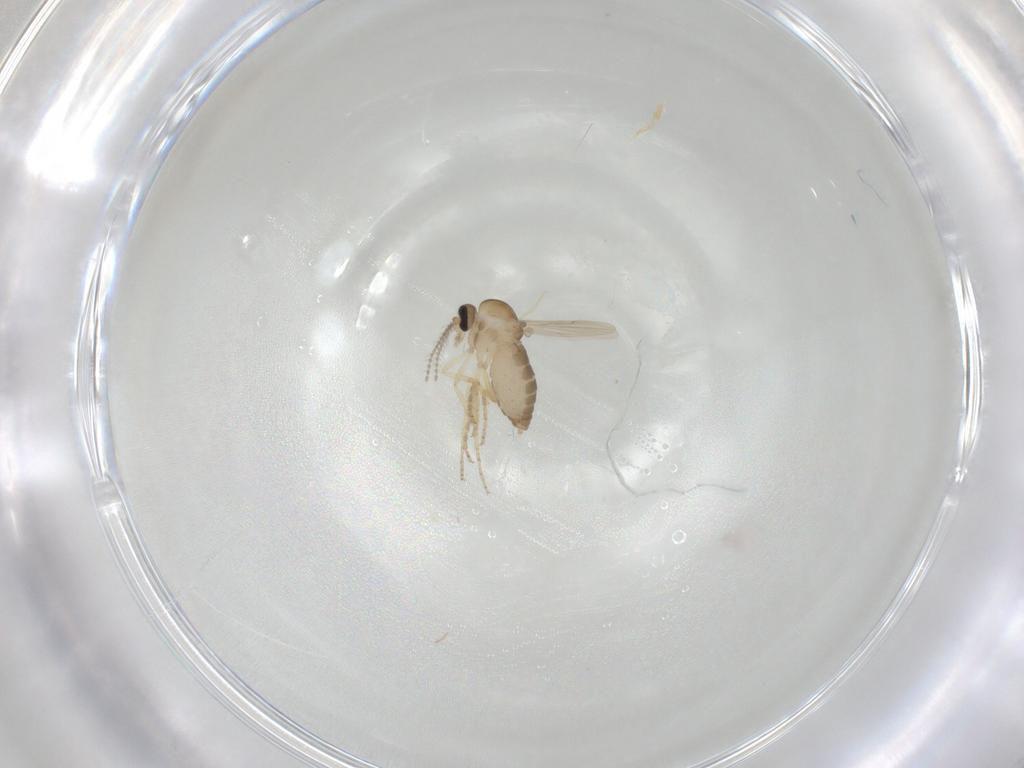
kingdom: Animalia
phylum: Arthropoda
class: Insecta
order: Diptera
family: Ceratopogonidae
